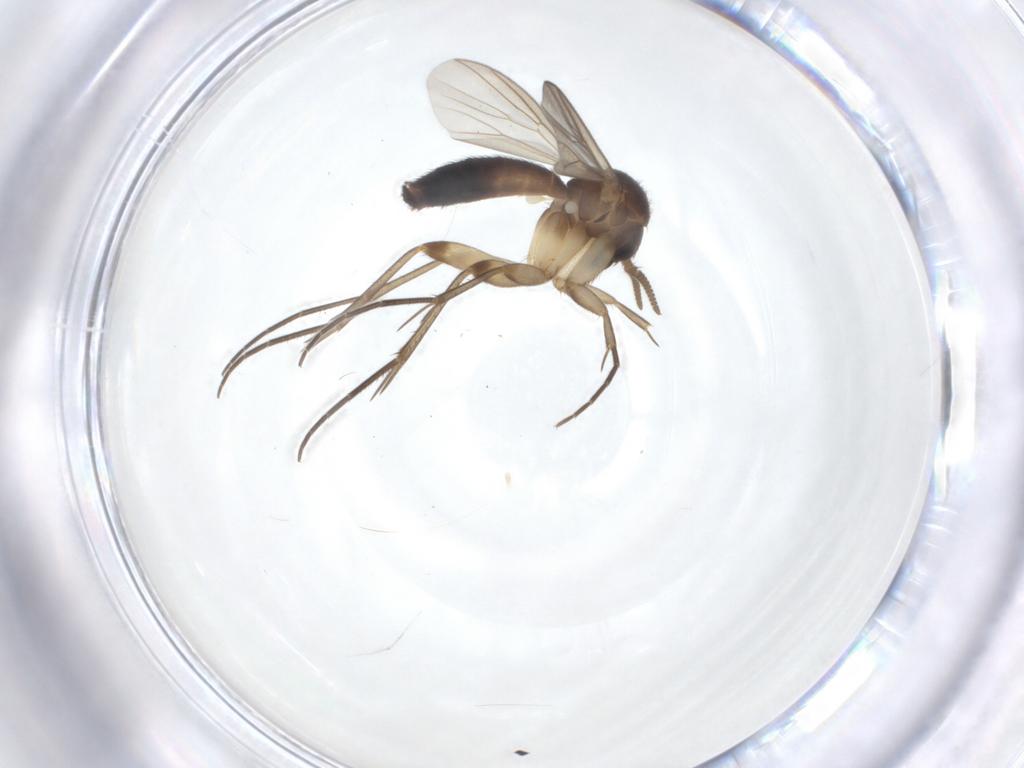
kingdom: Animalia
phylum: Arthropoda
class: Insecta
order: Diptera
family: Mycetophilidae
